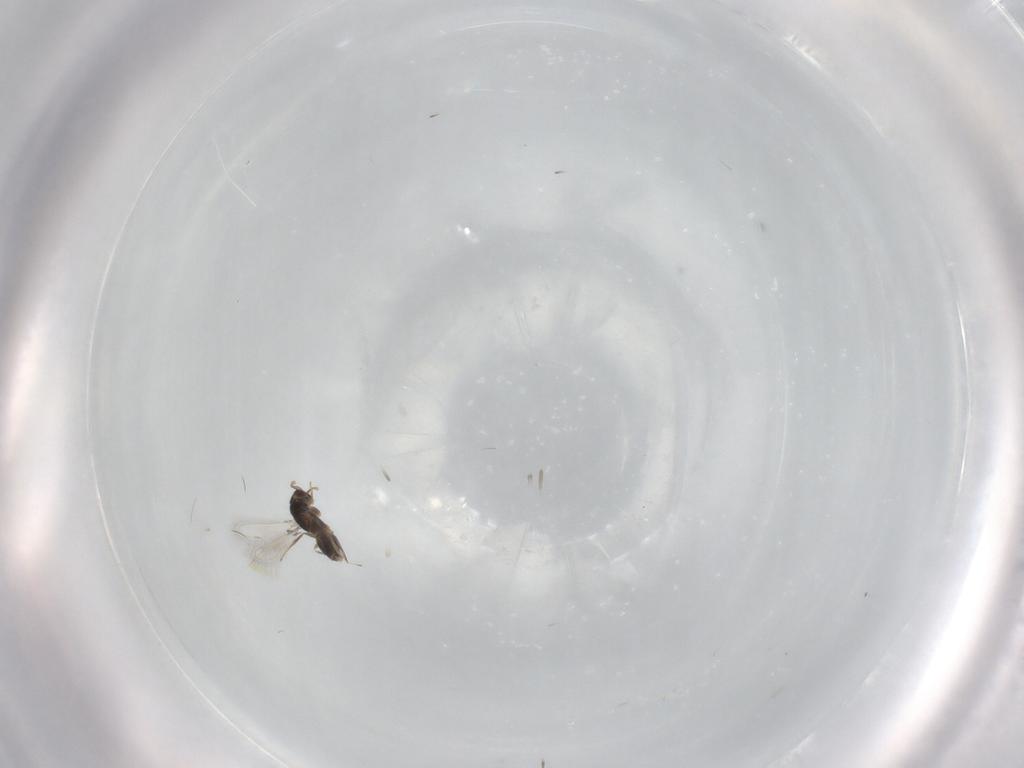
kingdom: Animalia
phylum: Arthropoda
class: Insecta
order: Hymenoptera
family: Mymaridae
